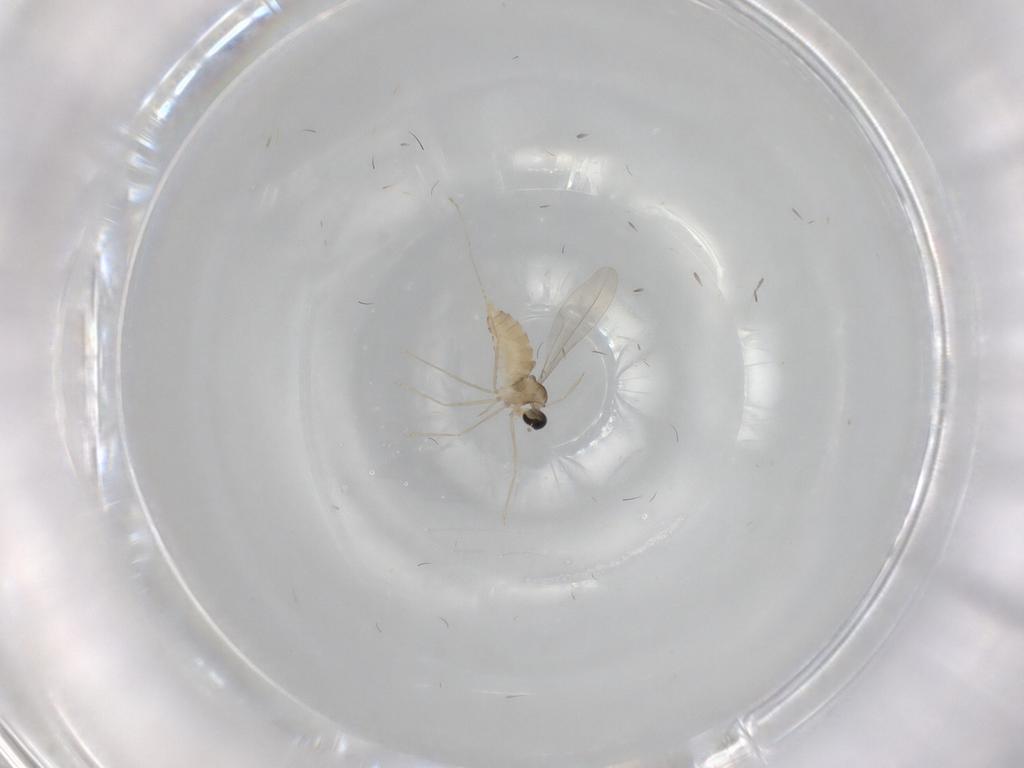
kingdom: Animalia
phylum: Arthropoda
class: Insecta
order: Diptera
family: Cecidomyiidae
